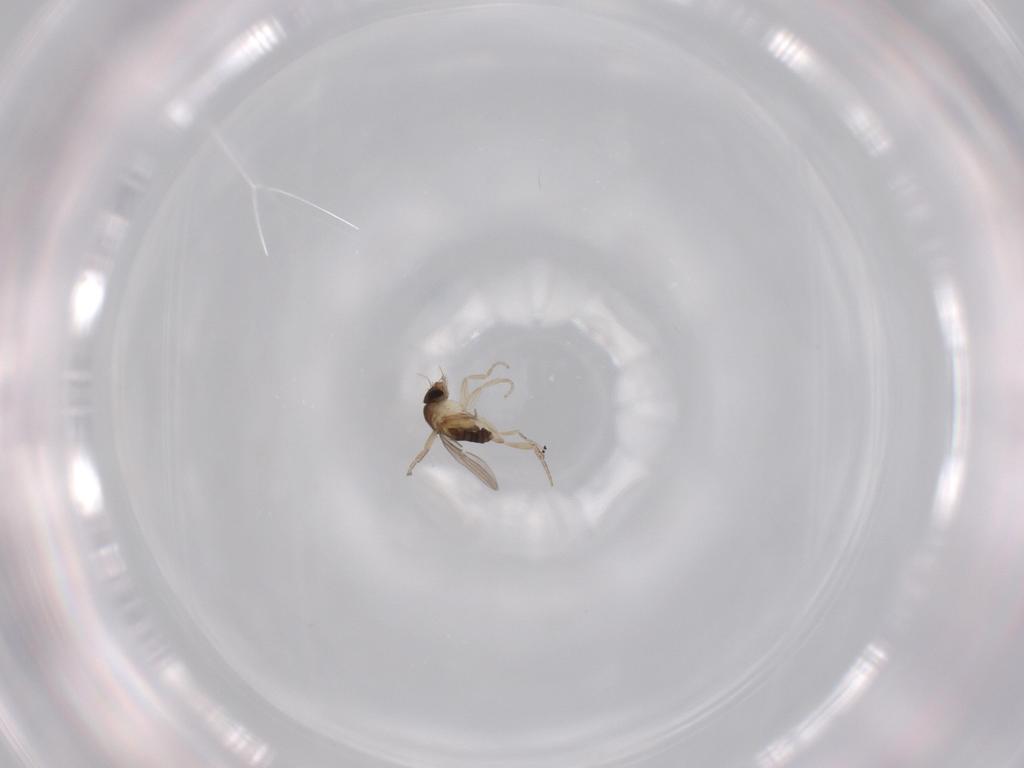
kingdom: Animalia
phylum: Arthropoda
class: Insecta
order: Diptera
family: Phoridae
